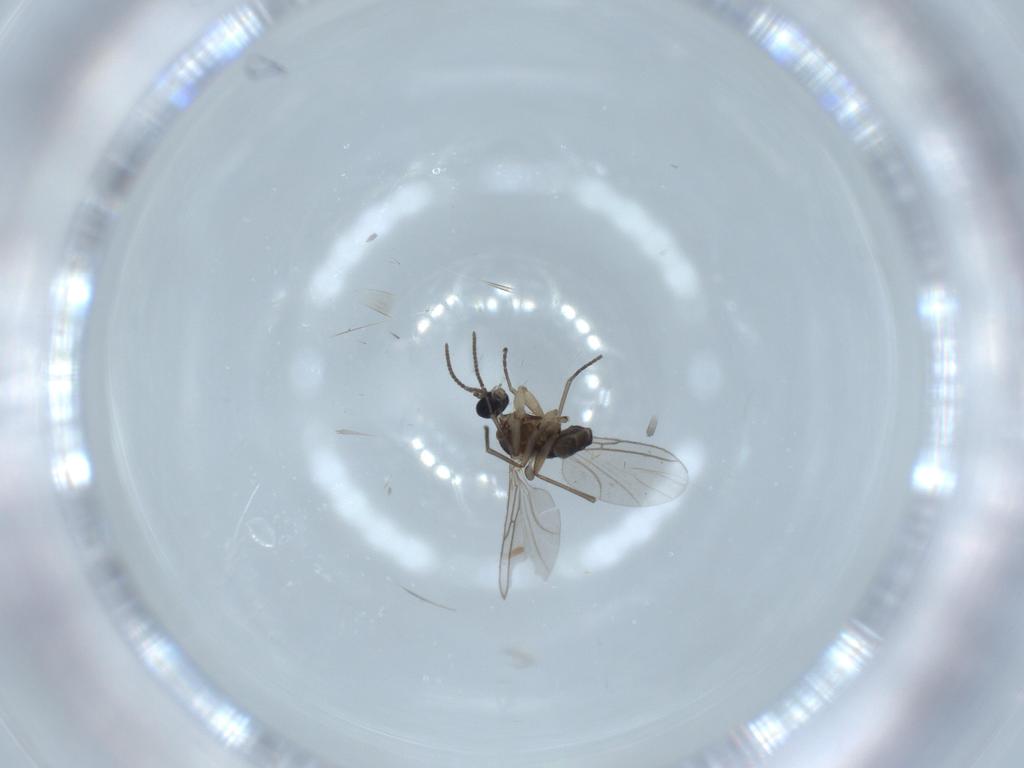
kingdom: Animalia
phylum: Arthropoda
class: Insecta
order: Diptera
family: Sciaridae
